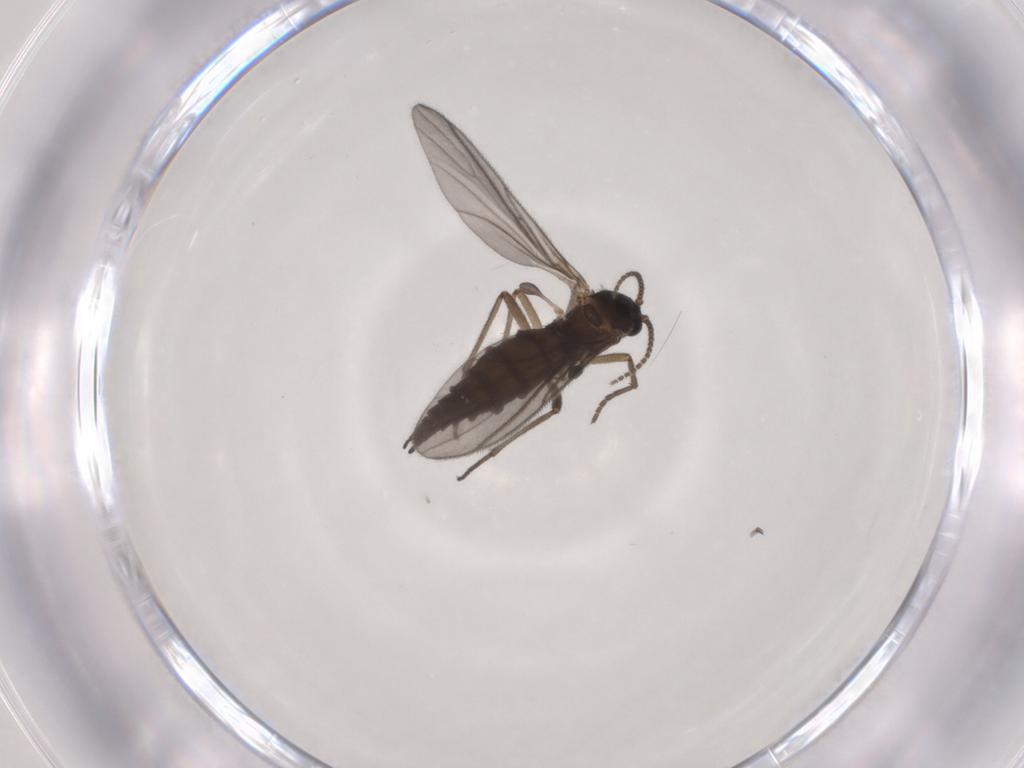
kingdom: Animalia
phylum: Arthropoda
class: Insecta
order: Diptera
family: Sciaridae
